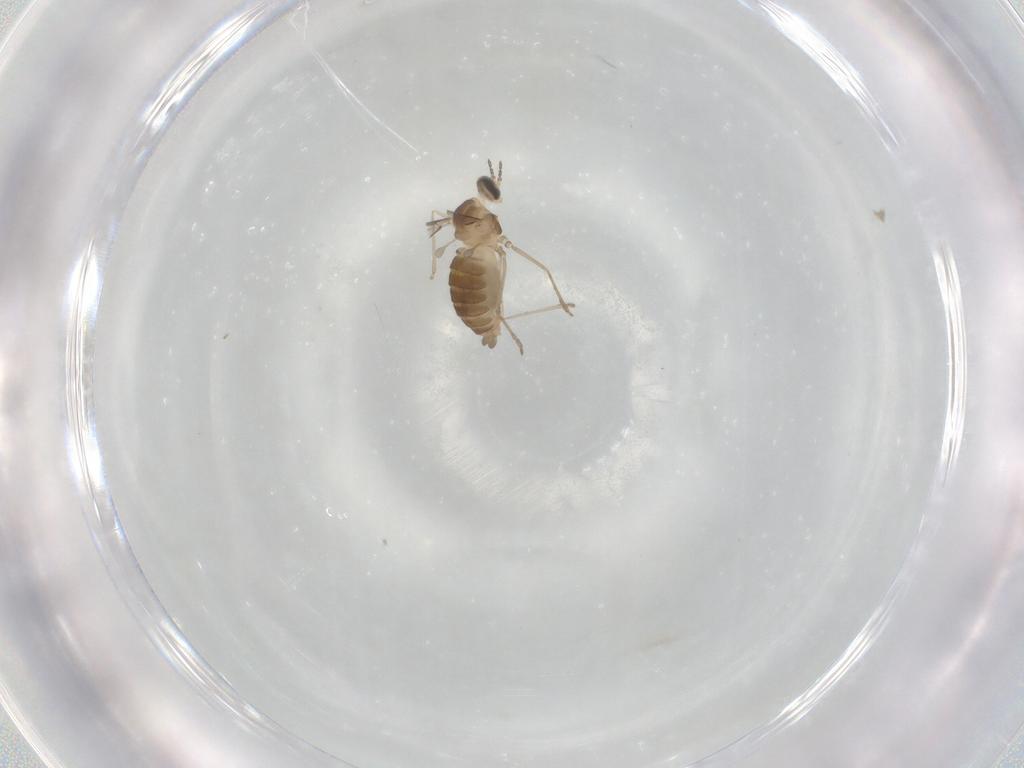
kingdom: Animalia
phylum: Arthropoda
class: Insecta
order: Diptera
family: Cecidomyiidae
